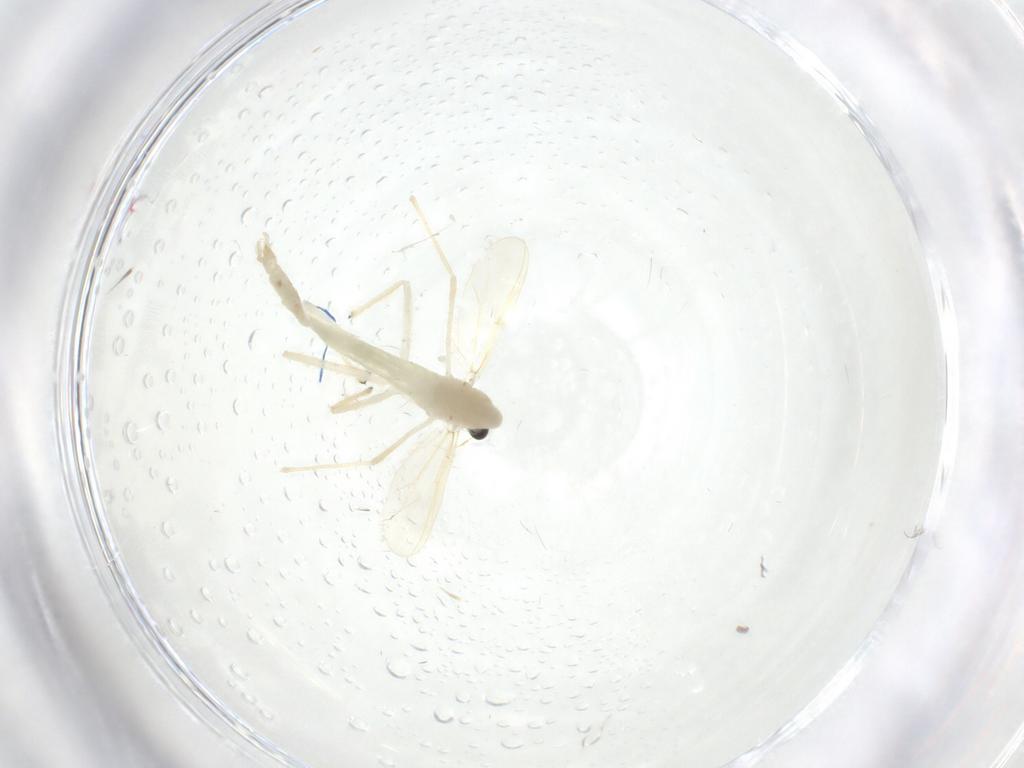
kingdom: Animalia
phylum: Arthropoda
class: Insecta
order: Diptera
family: Chironomidae
